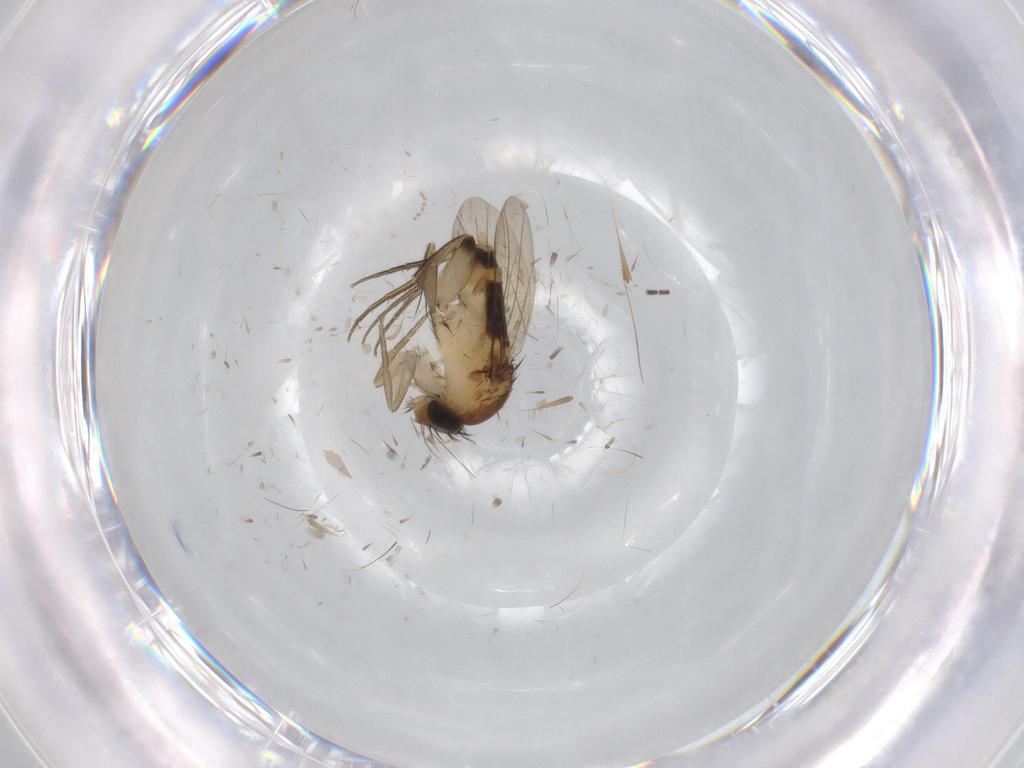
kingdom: Animalia
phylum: Arthropoda
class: Insecta
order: Diptera
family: Phoridae
